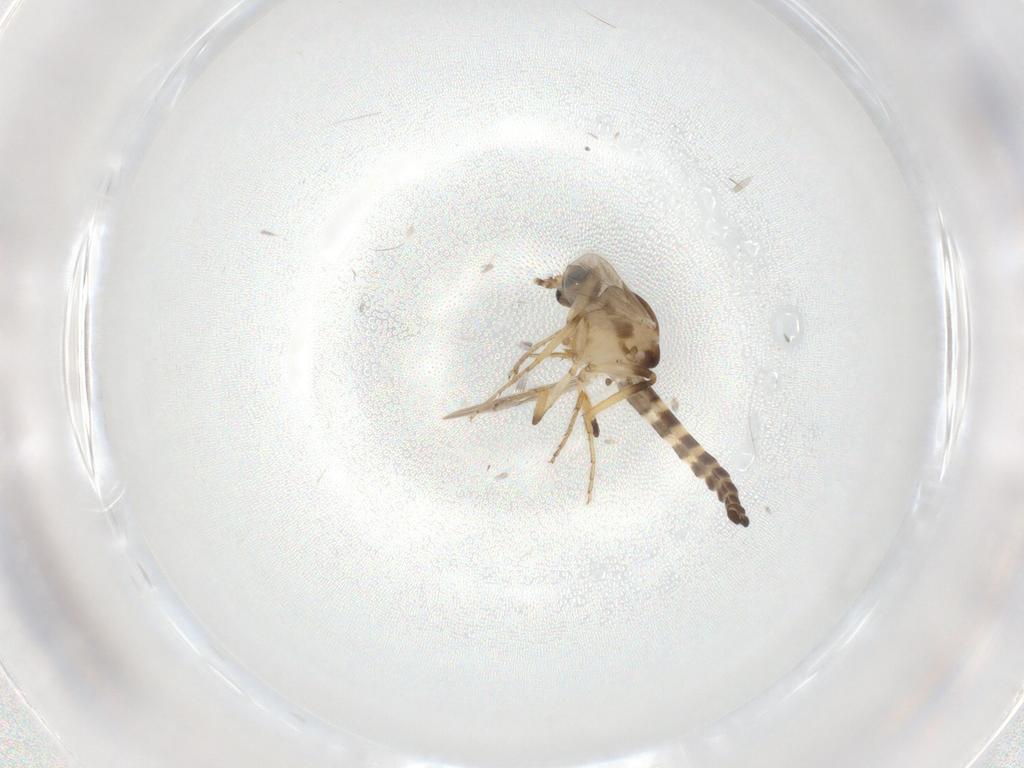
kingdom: Animalia
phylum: Arthropoda
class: Insecta
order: Diptera
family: Ceratopogonidae
